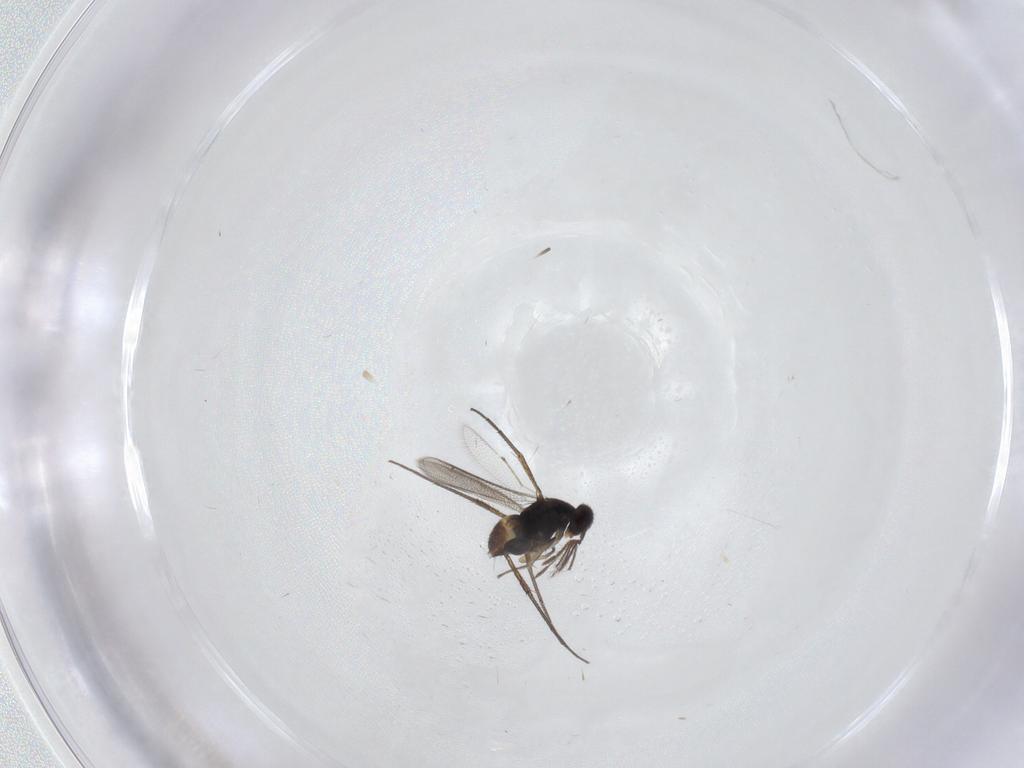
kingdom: Animalia
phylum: Arthropoda
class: Insecta
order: Hymenoptera
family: Eulophidae
